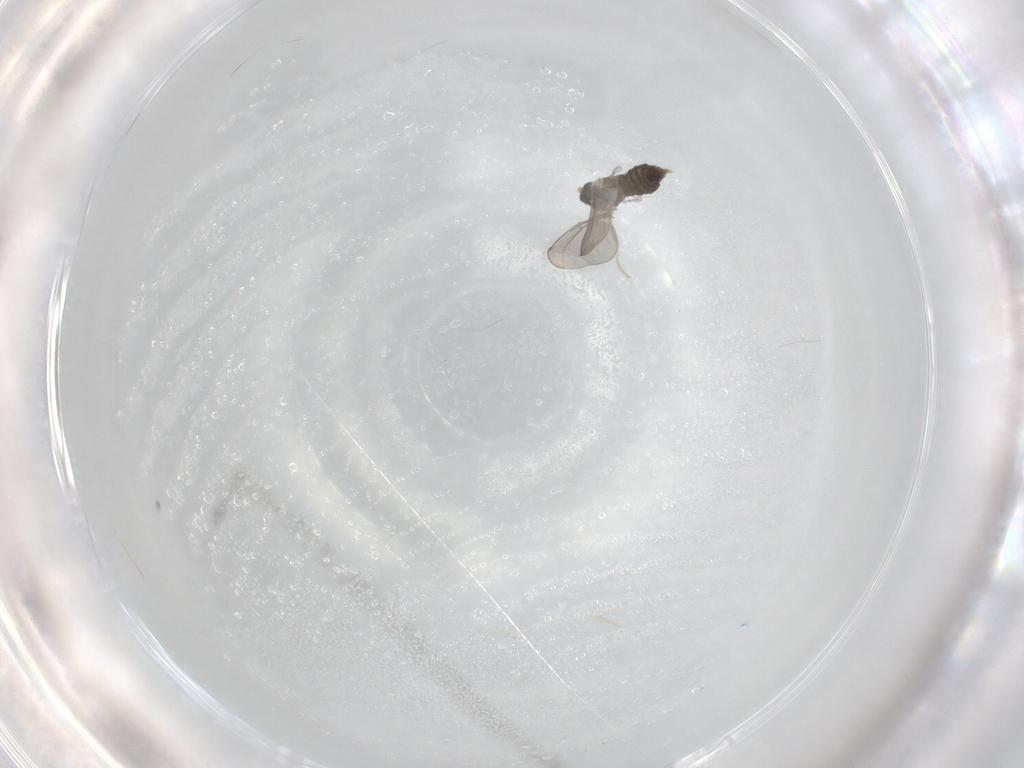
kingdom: Animalia
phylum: Arthropoda
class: Insecta
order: Diptera
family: Cecidomyiidae
